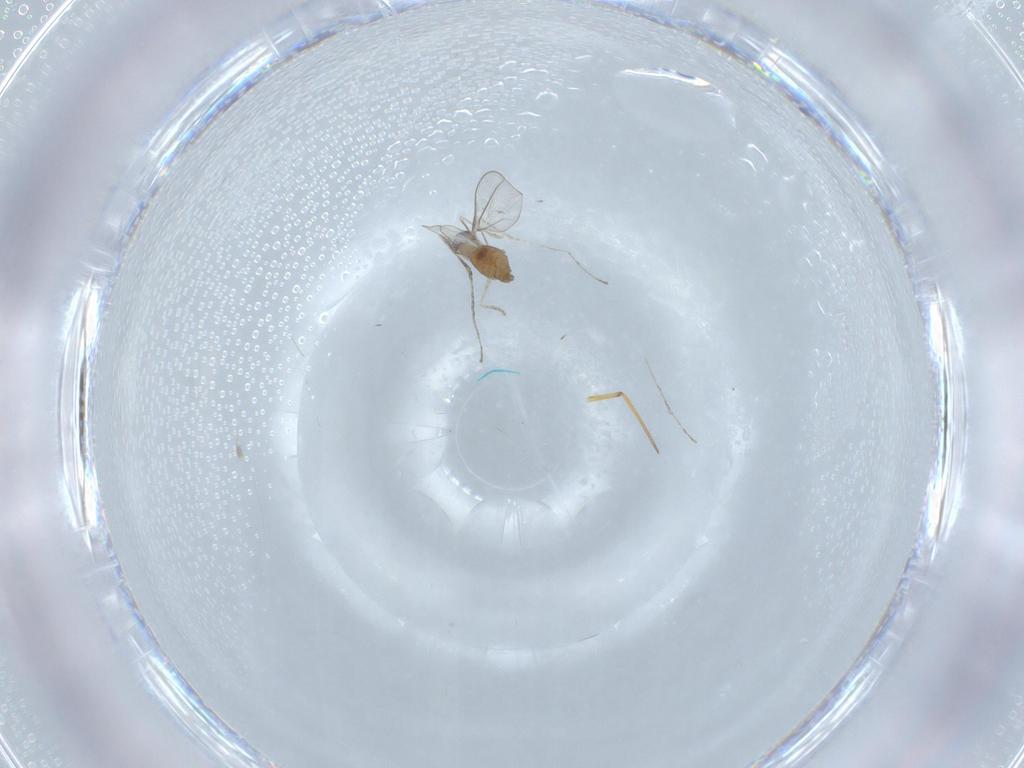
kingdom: Animalia
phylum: Arthropoda
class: Insecta
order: Diptera
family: Cecidomyiidae
